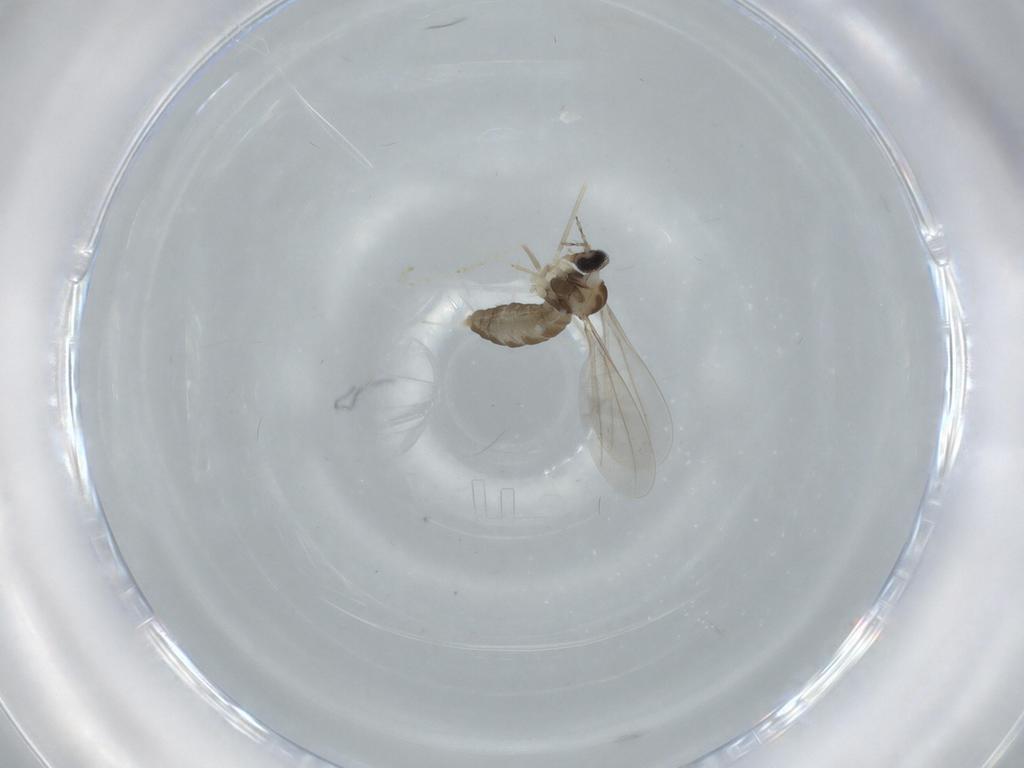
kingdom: Animalia
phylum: Arthropoda
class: Insecta
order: Diptera
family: Cecidomyiidae
